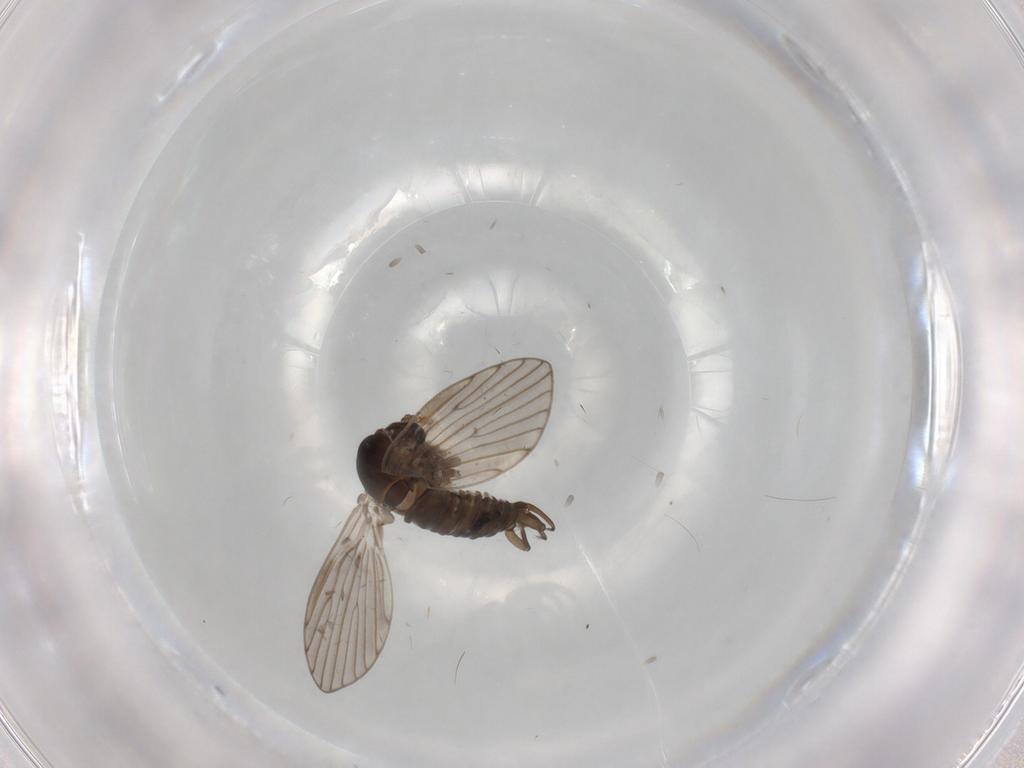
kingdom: Animalia
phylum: Arthropoda
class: Insecta
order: Diptera
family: Psychodidae
